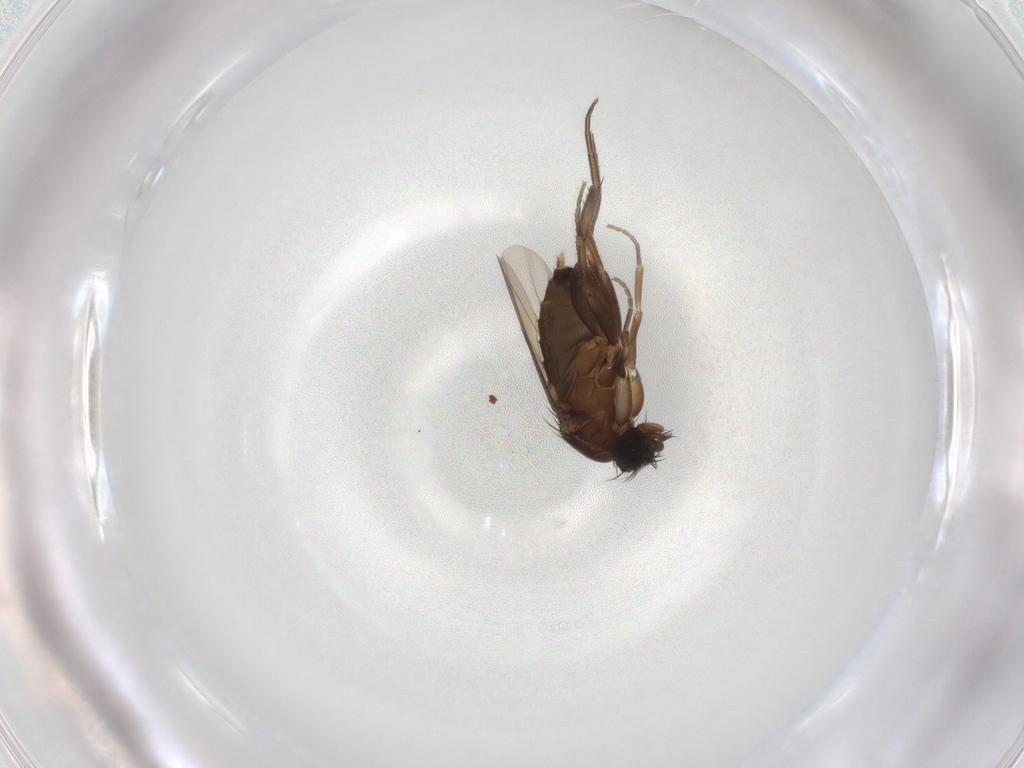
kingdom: Animalia
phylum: Arthropoda
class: Insecta
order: Diptera
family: Phoridae
